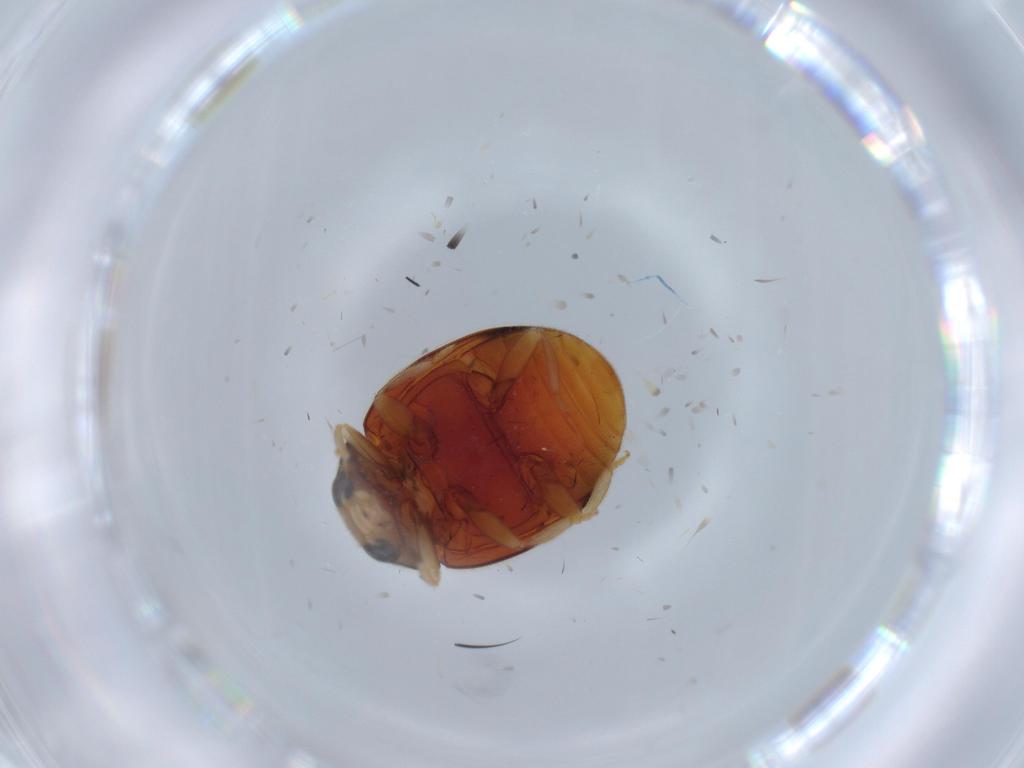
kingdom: Animalia
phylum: Arthropoda
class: Insecta
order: Coleoptera
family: Coccinellidae
